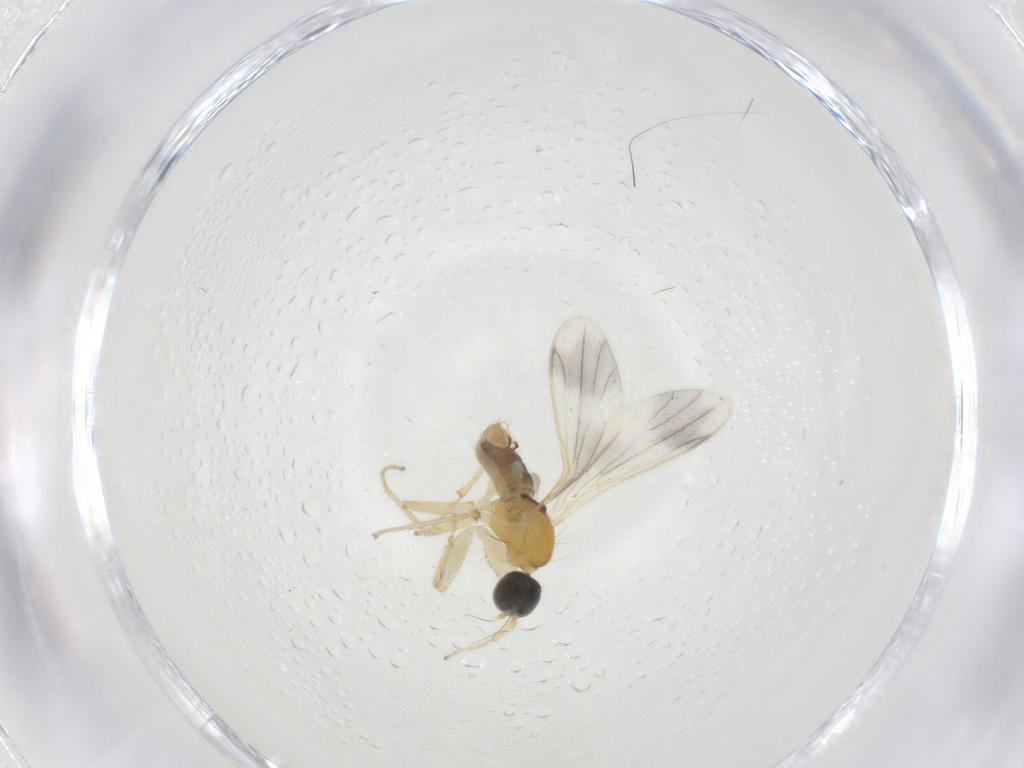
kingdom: Animalia
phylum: Arthropoda
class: Insecta
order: Diptera
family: Empididae
